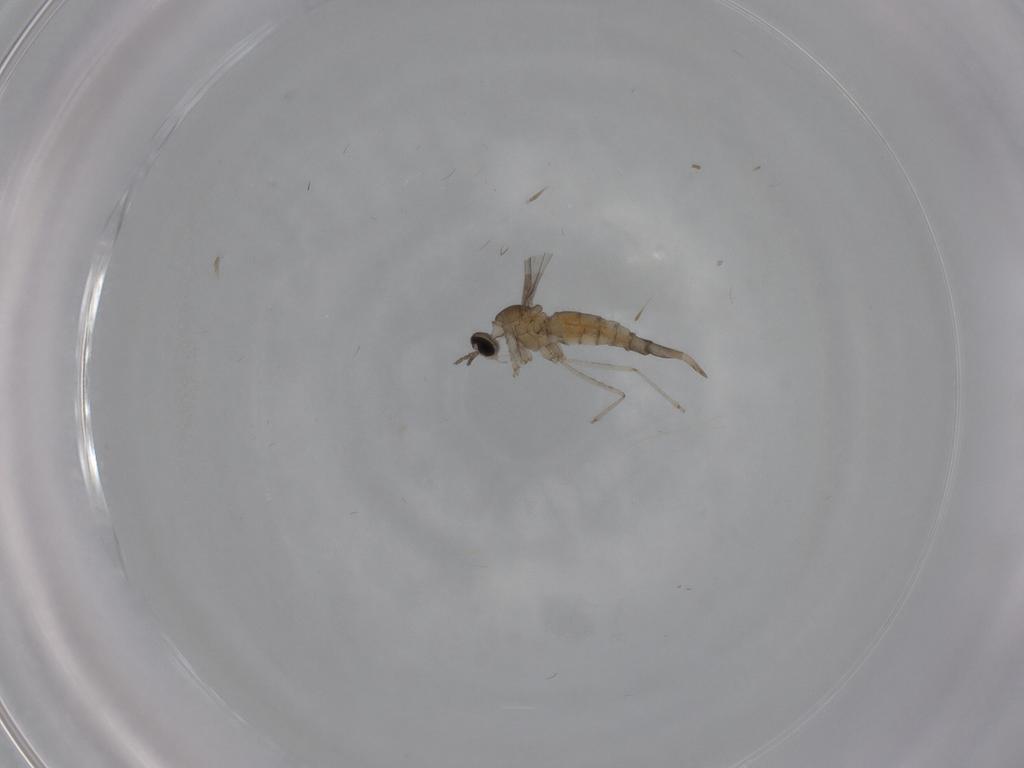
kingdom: Animalia
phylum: Arthropoda
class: Insecta
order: Diptera
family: Cecidomyiidae
